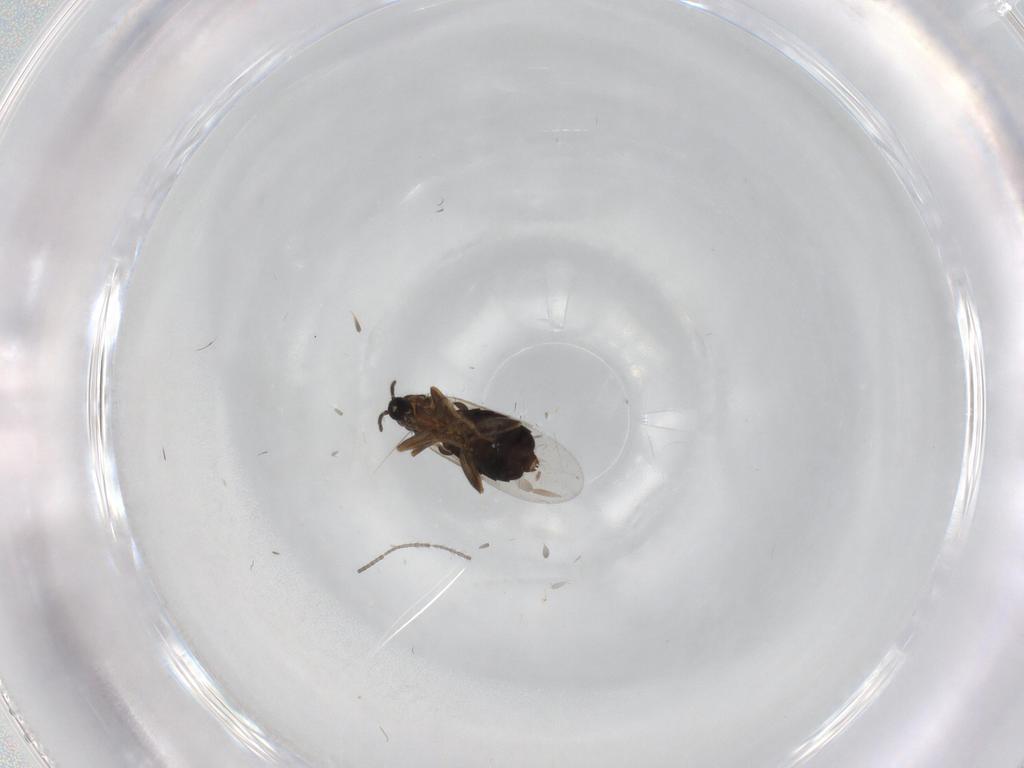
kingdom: Animalia
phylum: Arthropoda
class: Insecta
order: Diptera
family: Scatopsidae
